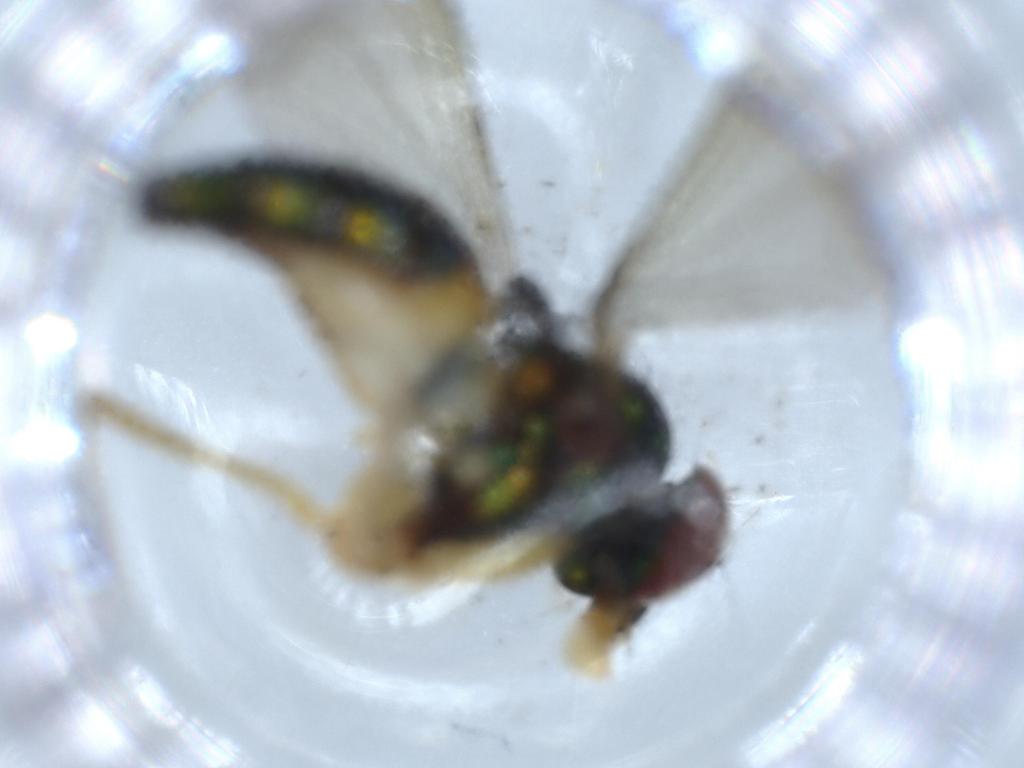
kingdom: Animalia
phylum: Arthropoda
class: Insecta
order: Diptera
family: Dolichopodidae
